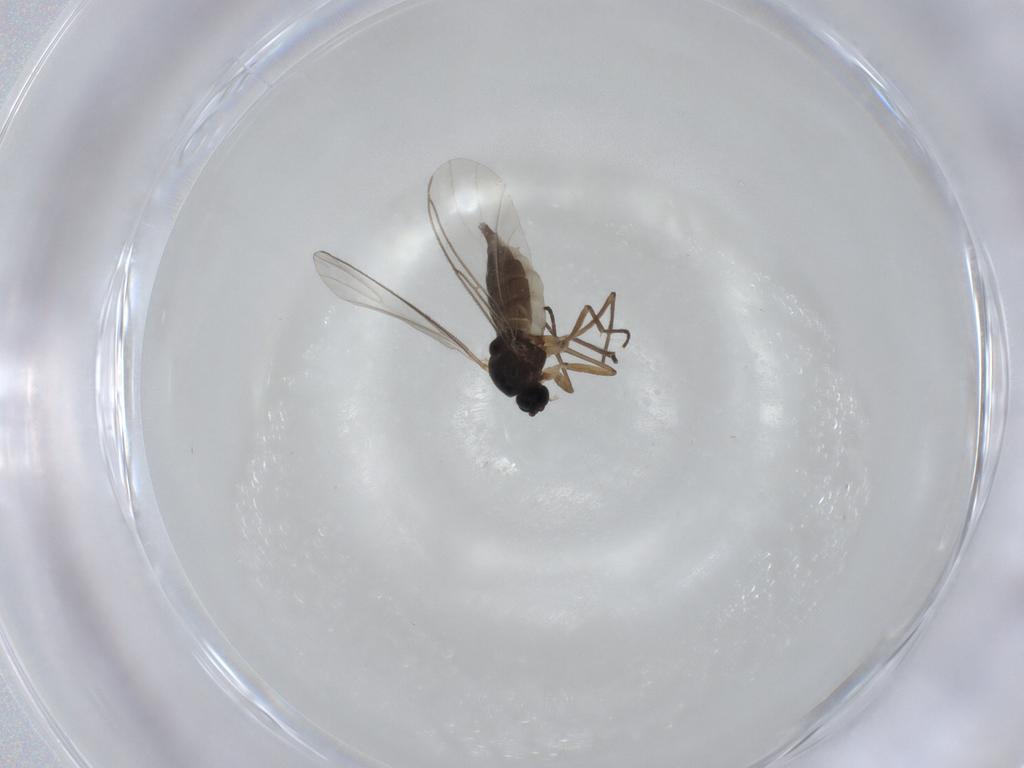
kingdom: Animalia
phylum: Arthropoda
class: Insecta
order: Diptera
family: Sciaridae
